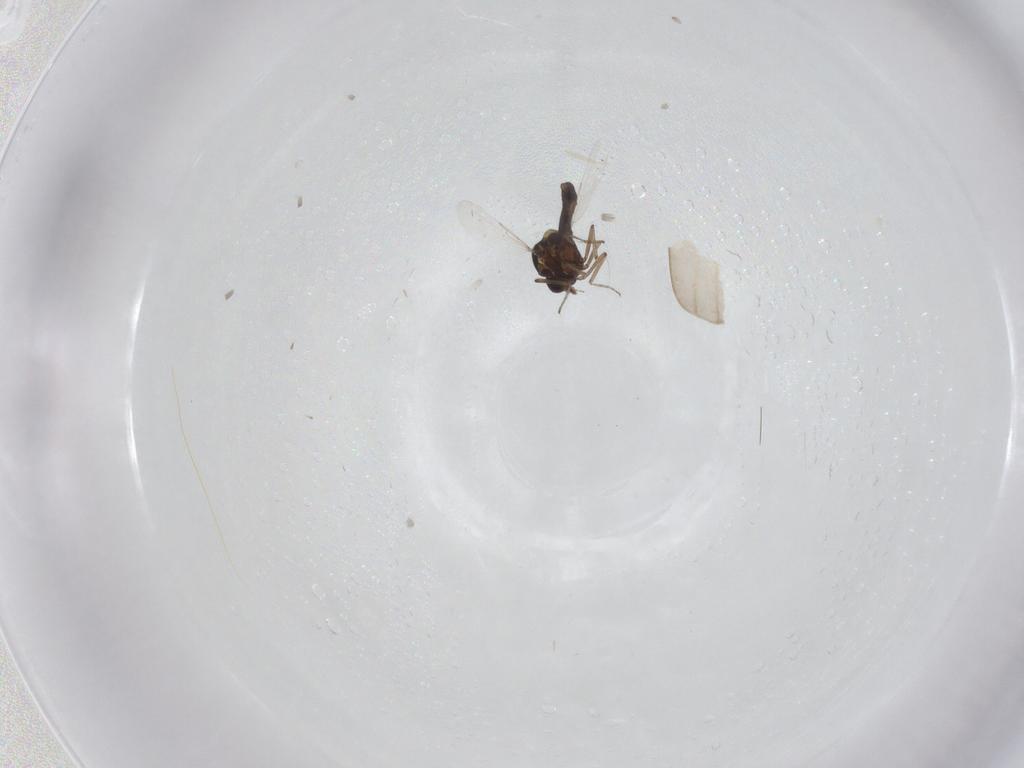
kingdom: Animalia
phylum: Arthropoda
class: Insecta
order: Diptera
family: Ceratopogonidae
